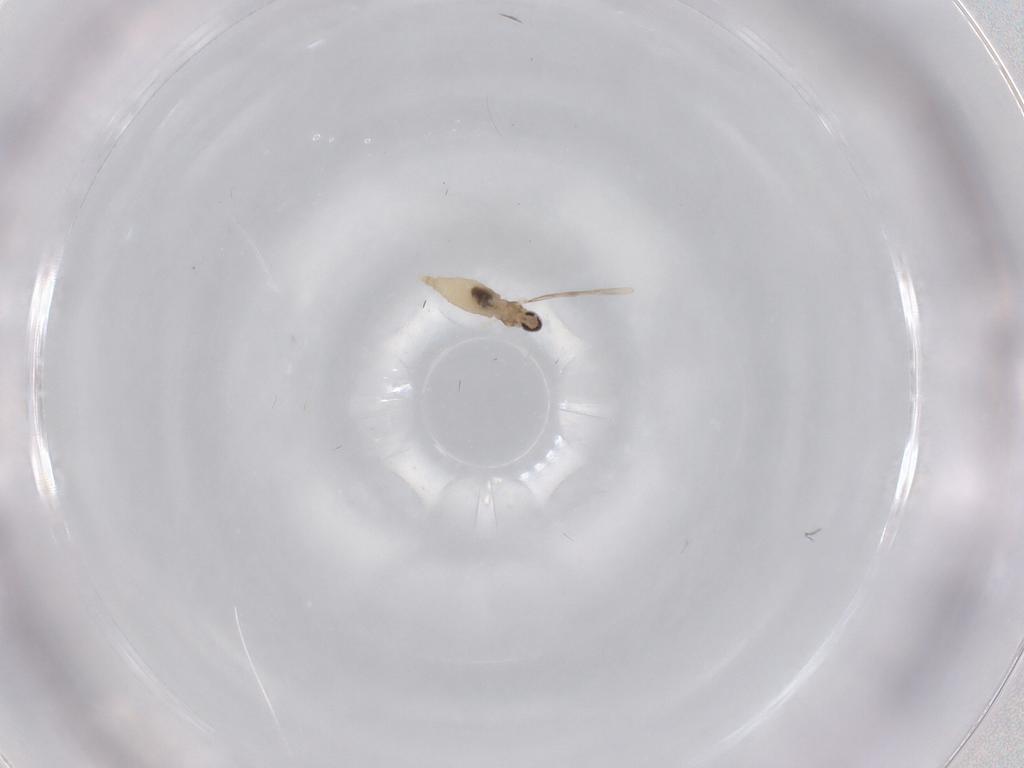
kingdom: Animalia
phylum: Arthropoda
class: Insecta
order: Diptera
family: Cecidomyiidae
